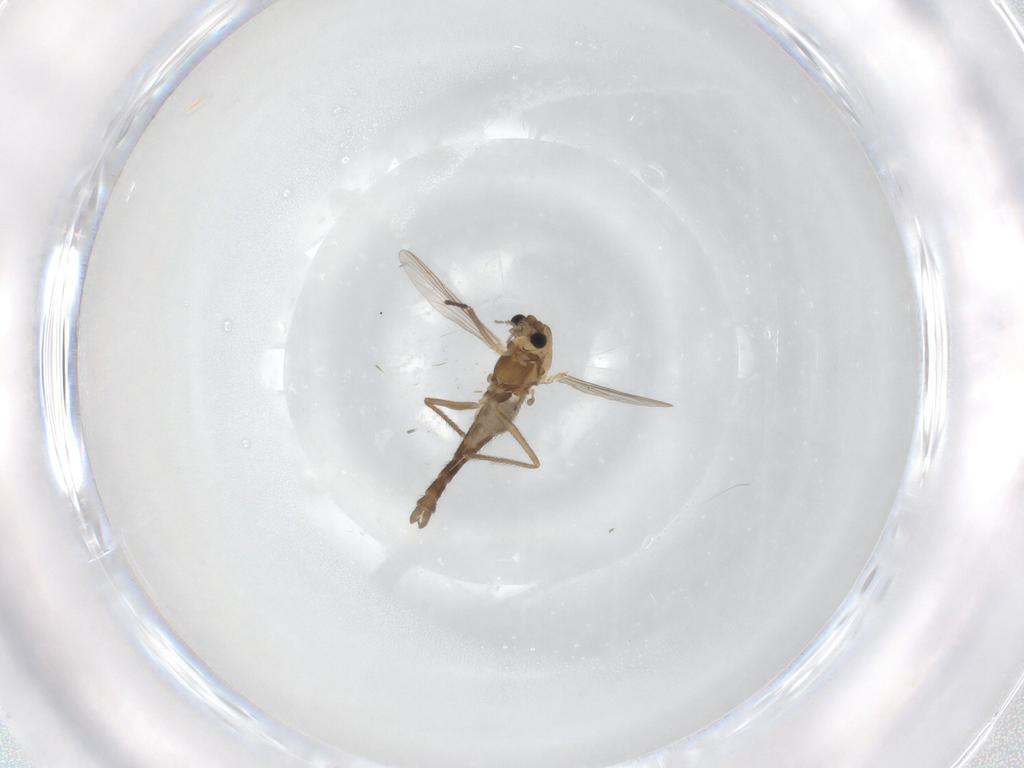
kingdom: Animalia
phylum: Arthropoda
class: Insecta
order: Diptera
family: Chironomidae
